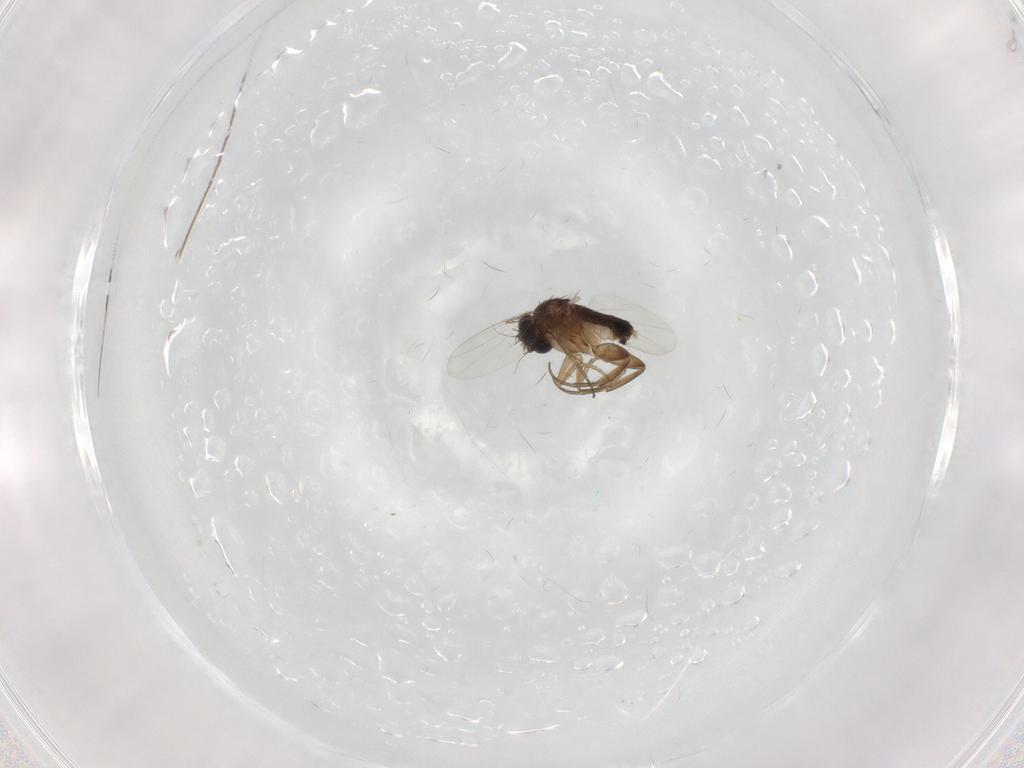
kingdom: Animalia
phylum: Arthropoda
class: Insecta
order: Diptera
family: Phoridae
